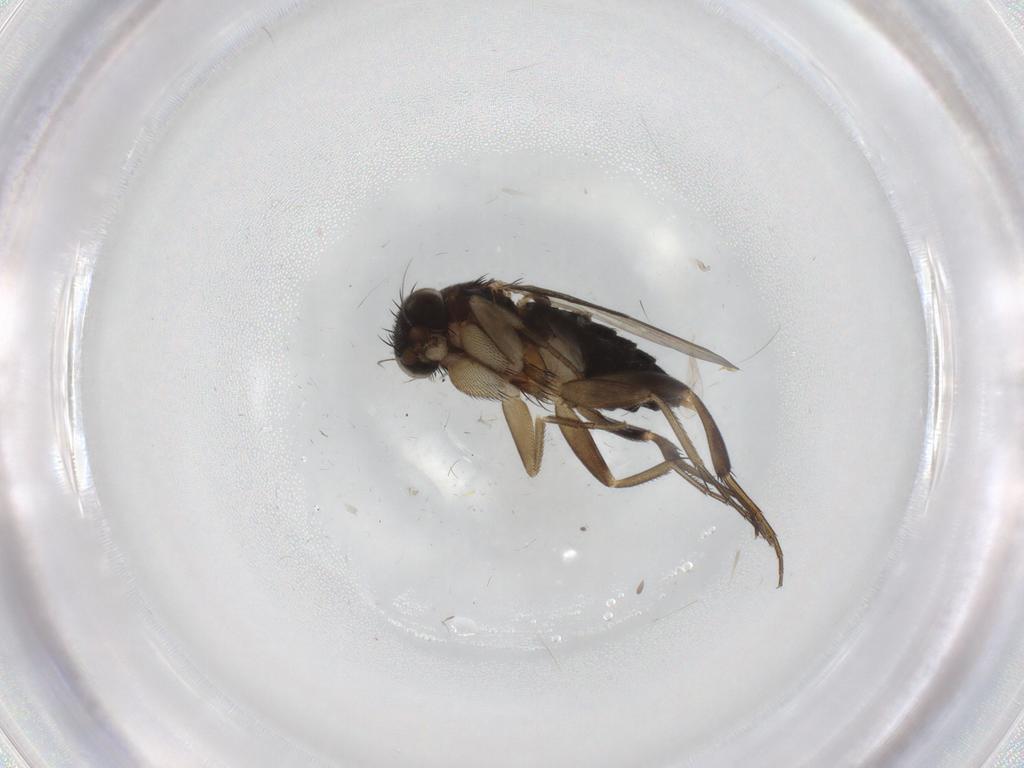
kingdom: Animalia
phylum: Arthropoda
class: Insecta
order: Diptera
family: Phoridae
